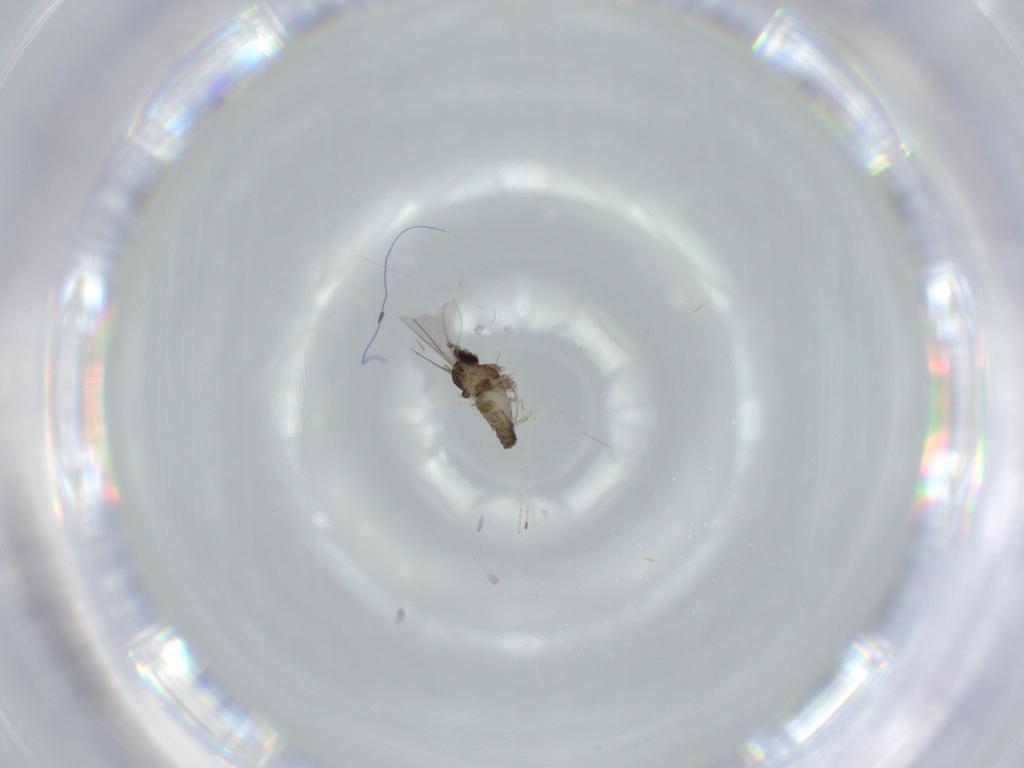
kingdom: Animalia
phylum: Arthropoda
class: Insecta
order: Diptera
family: Cecidomyiidae
